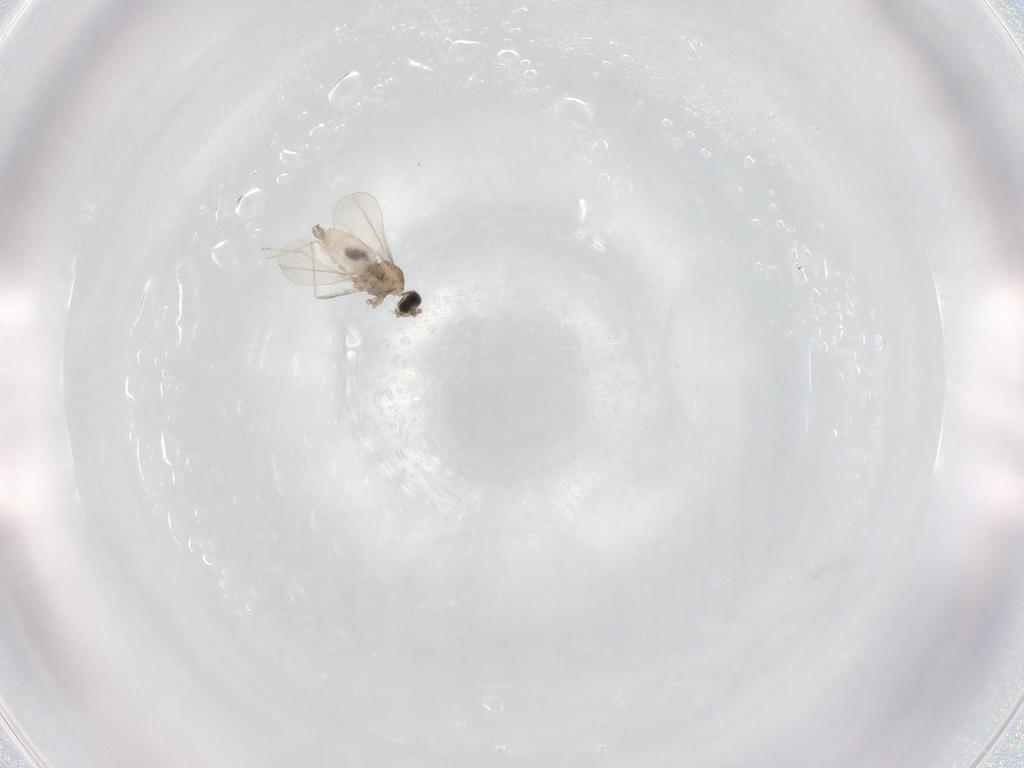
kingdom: Animalia
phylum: Arthropoda
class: Insecta
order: Diptera
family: Cecidomyiidae
